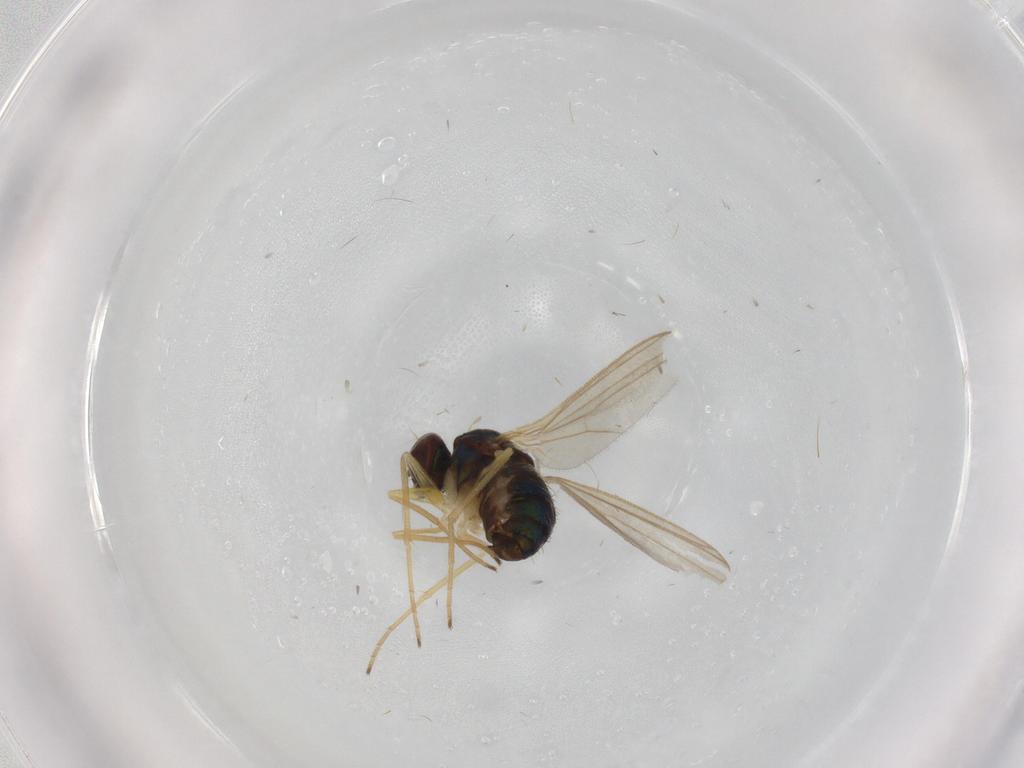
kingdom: Animalia
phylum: Arthropoda
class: Insecta
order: Diptera
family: Dolichopodidae
